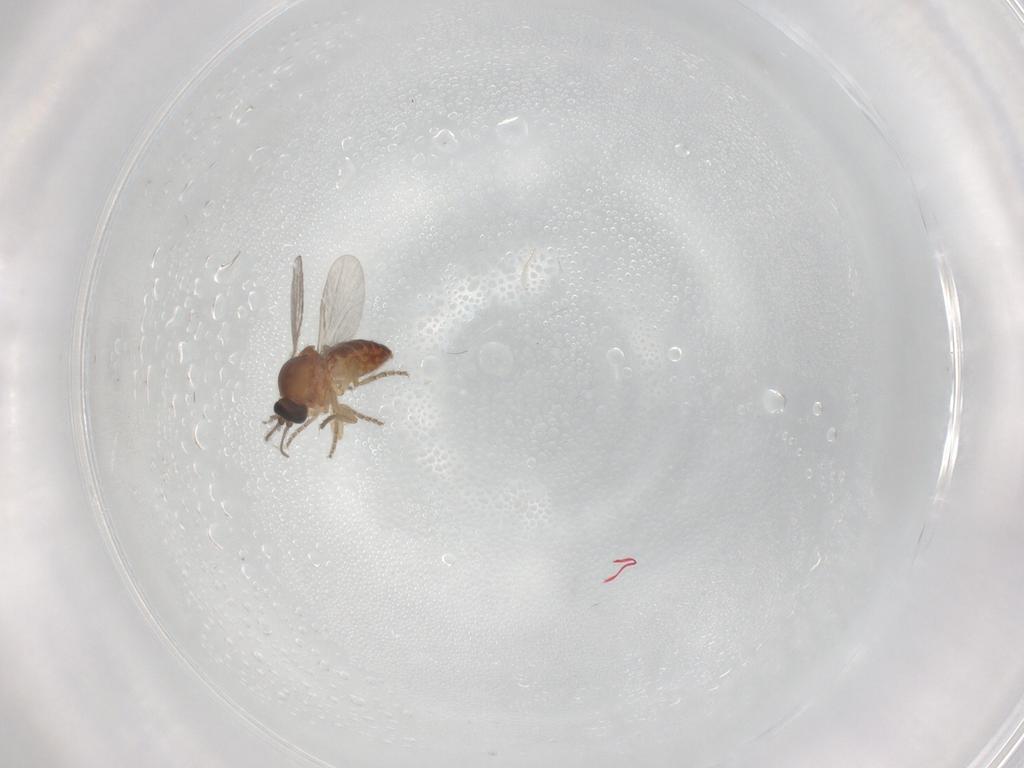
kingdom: Animalia
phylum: Arthropoda
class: Insecta
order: Diptera
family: Ceratopogonidae
